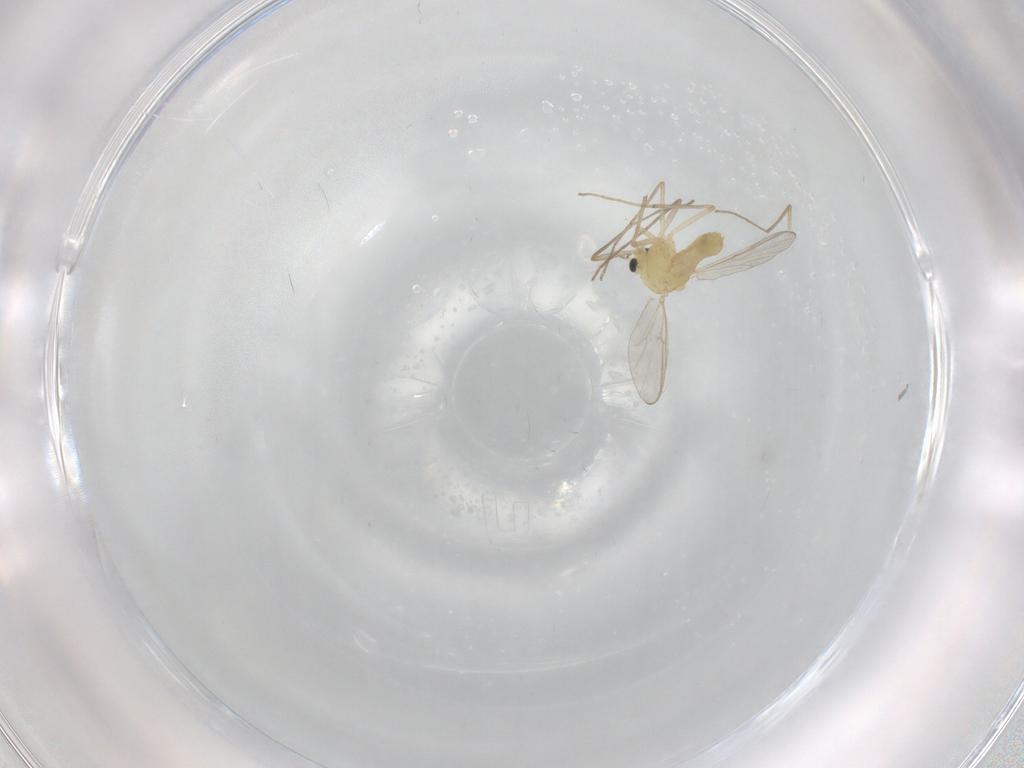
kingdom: Animalia
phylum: Arthropoda
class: Insecta
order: Diptera
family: Chironomidae
